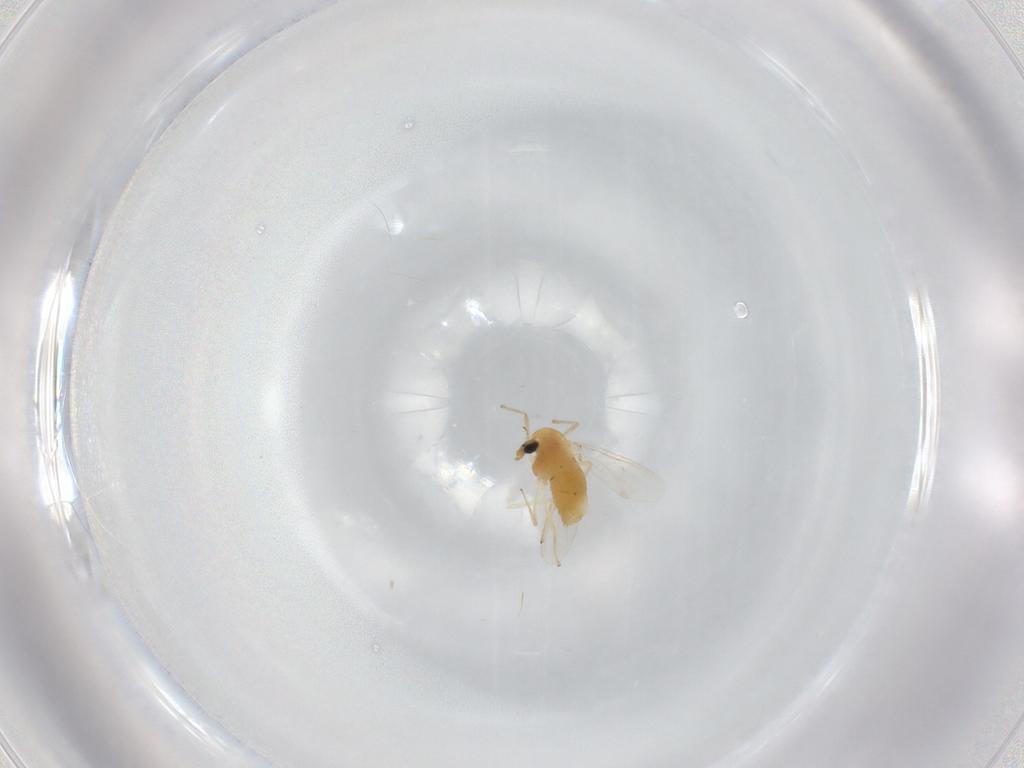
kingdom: Animalia
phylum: Arthropoda
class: Insecta
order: Diptera
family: Chironomidae
